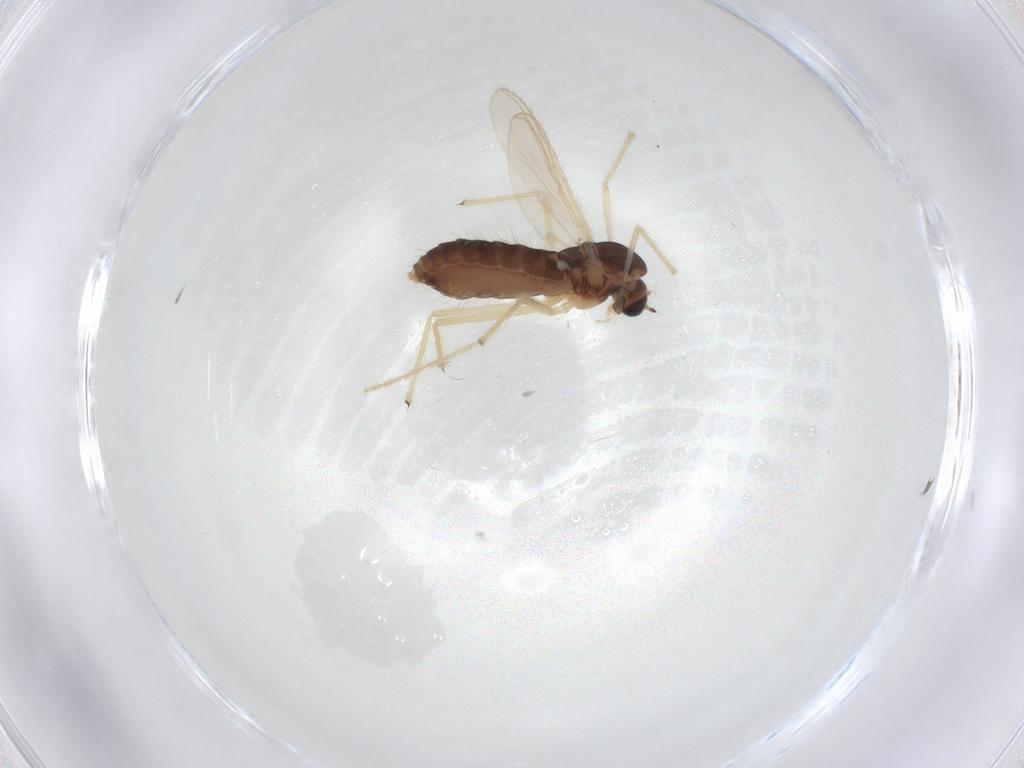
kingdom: Animalia
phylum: Arthropoda
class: Insecta
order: Diptera
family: Chironomidae
